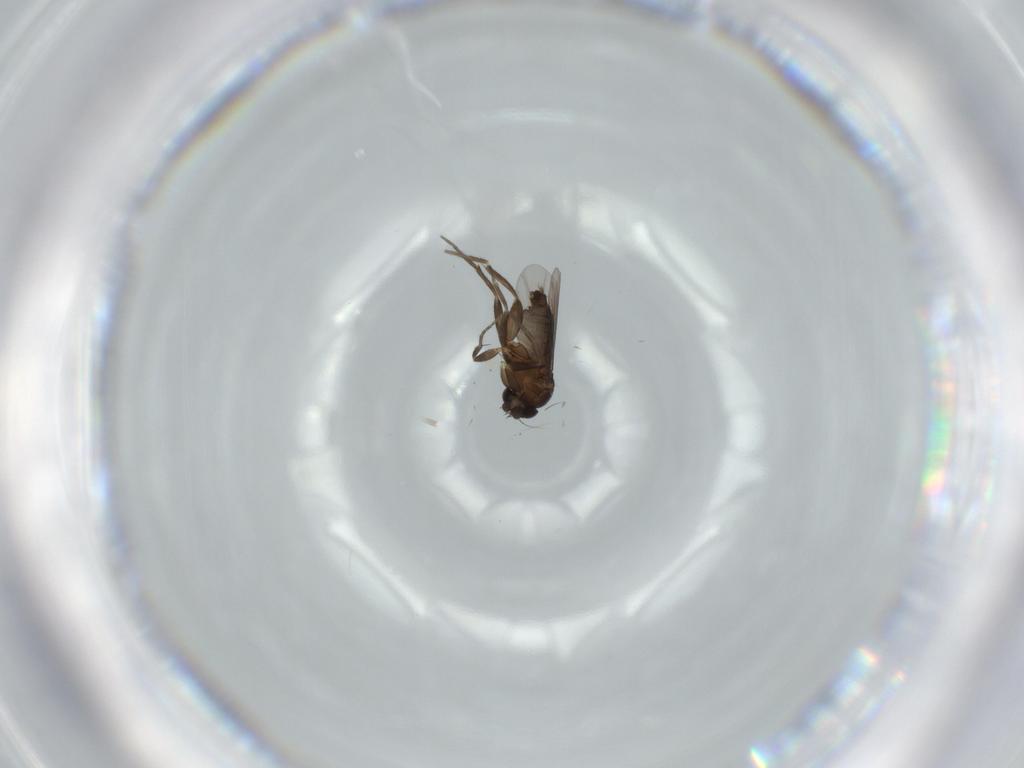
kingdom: Animalia
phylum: Arthropoda
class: Insecta
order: Diptera
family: Phoridae
